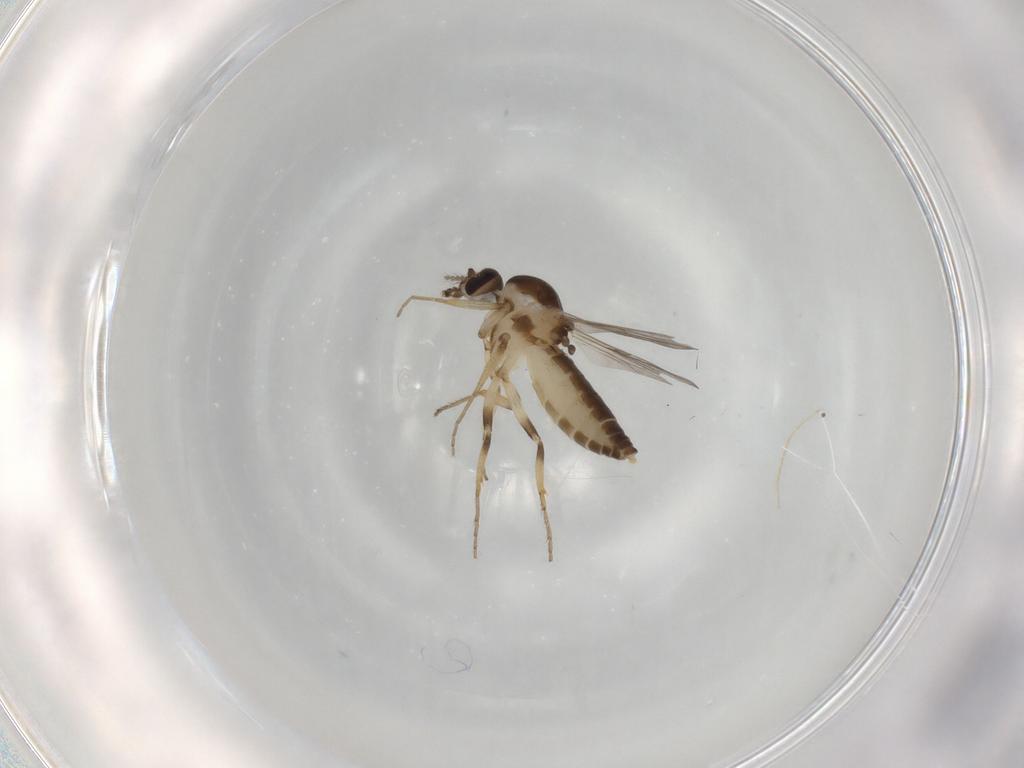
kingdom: Animalia
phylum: Arthropoda
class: Insecta
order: Diptera
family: Ceratopogonidae
